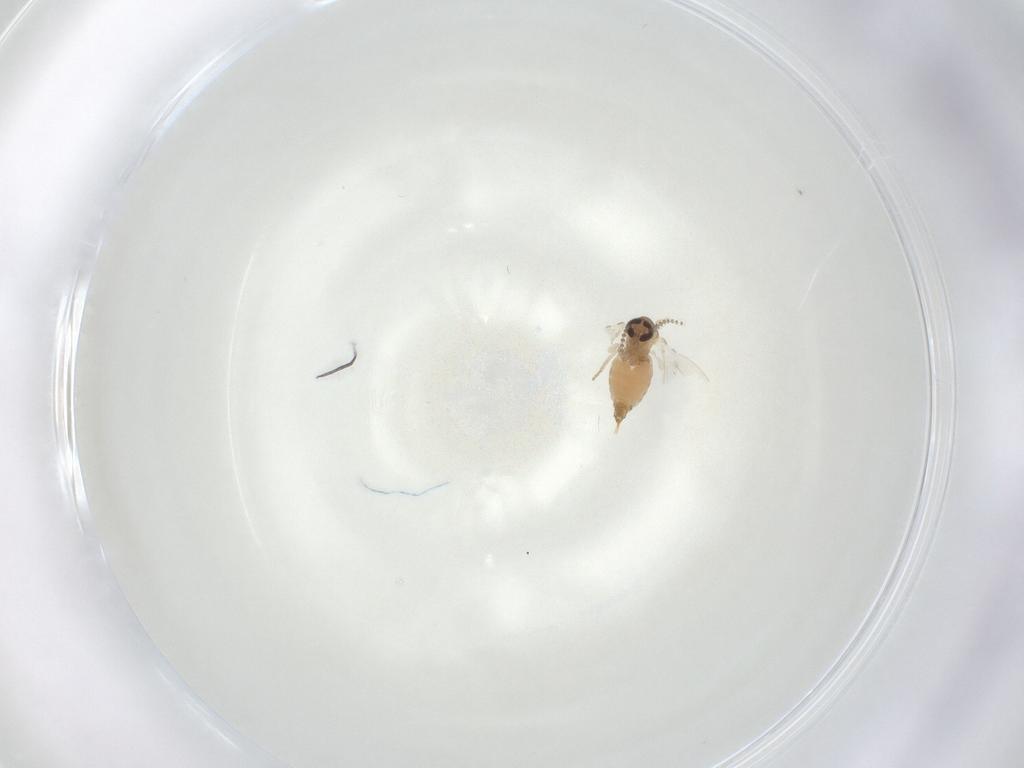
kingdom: Animalia
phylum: Arthropoda
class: Insecta
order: Diptera
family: Psychodidae
